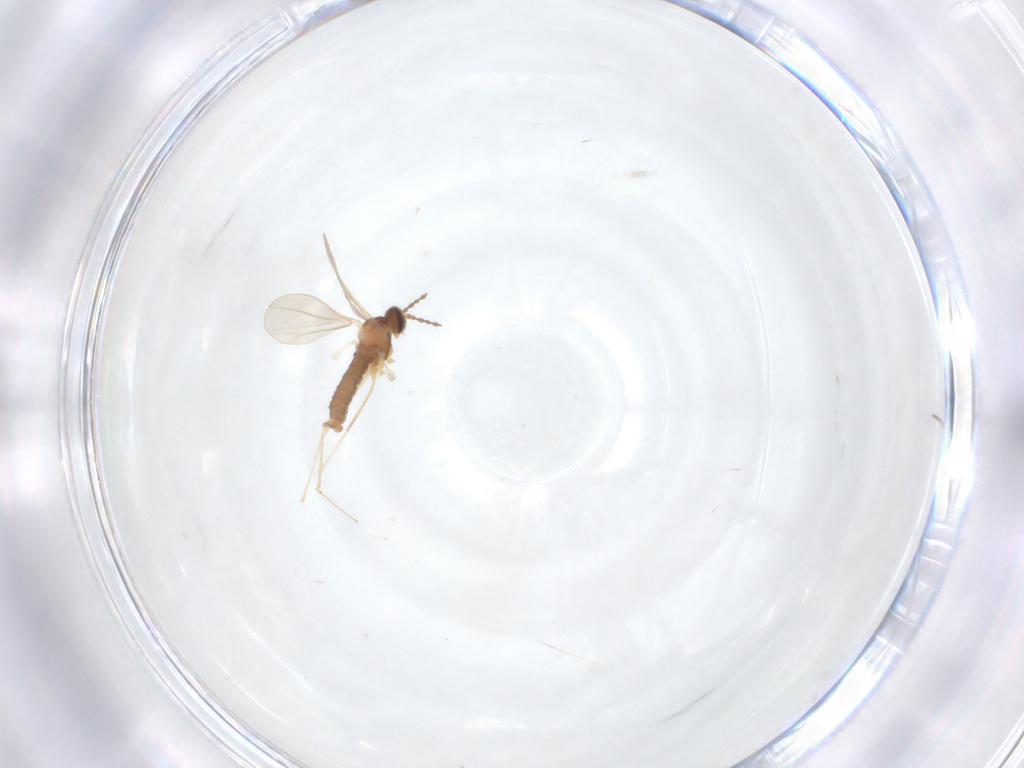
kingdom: Animalia
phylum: Arthropoda
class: Insecta
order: Diptera
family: Cecidomyiidae
